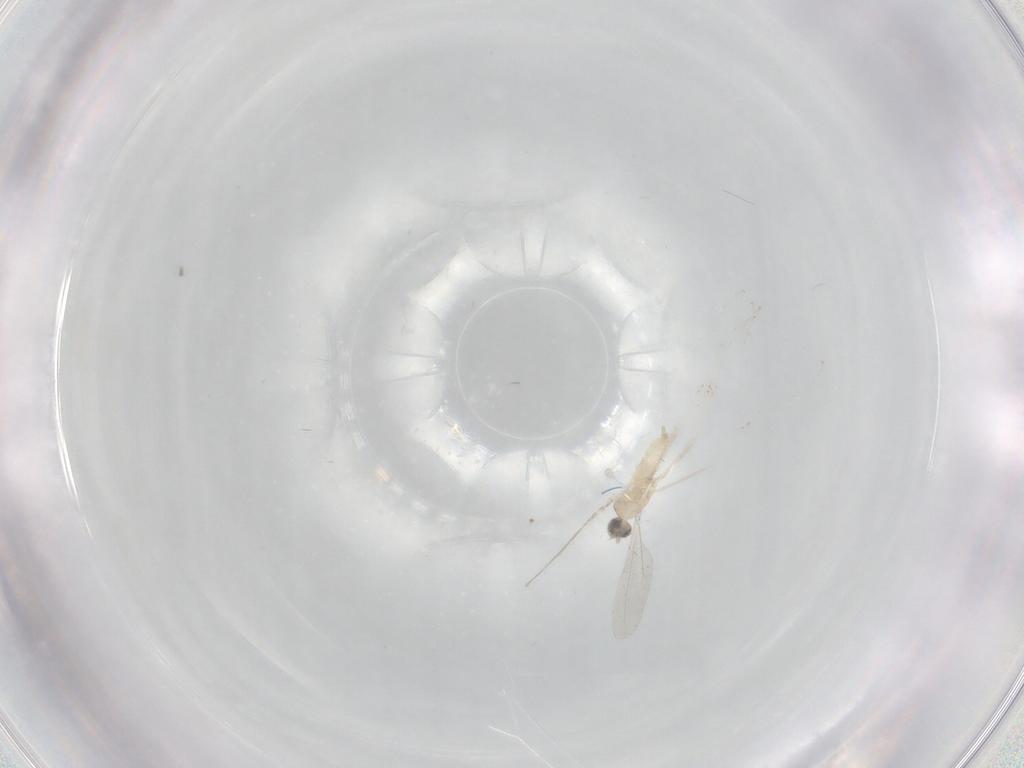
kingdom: Animalia
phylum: Arthropoda
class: Insecta
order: Diptera
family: Cecidomyiidae
